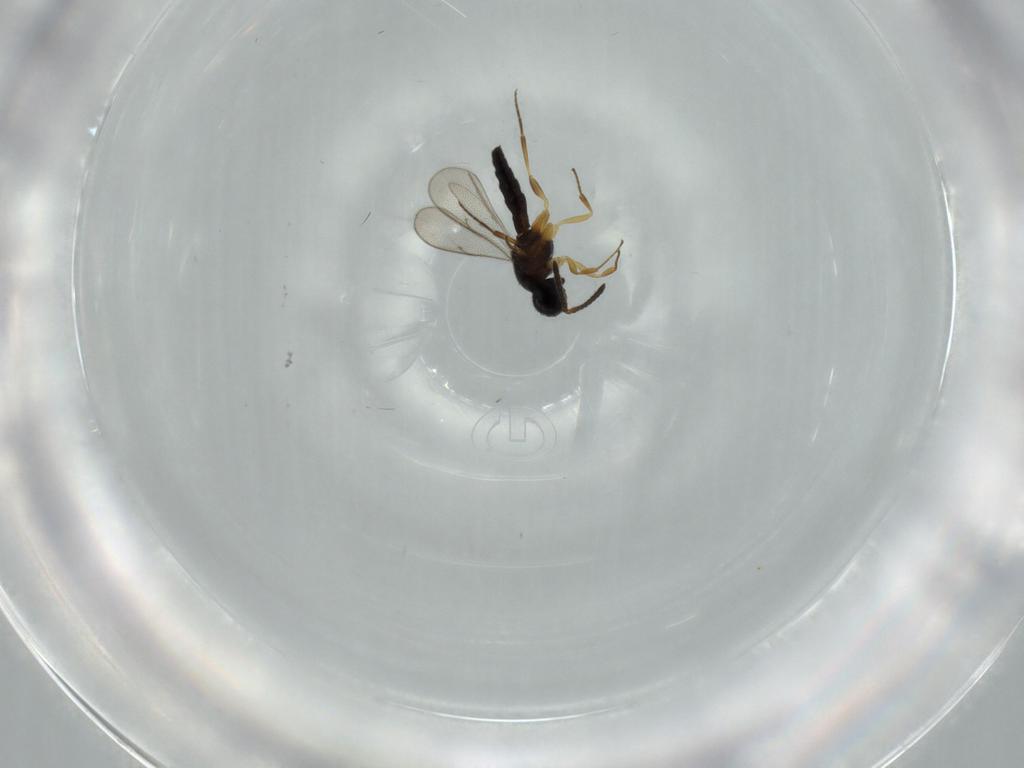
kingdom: Animalia
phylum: Arthropoda
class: Insecta
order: Hymenoptera
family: Scelionidae
